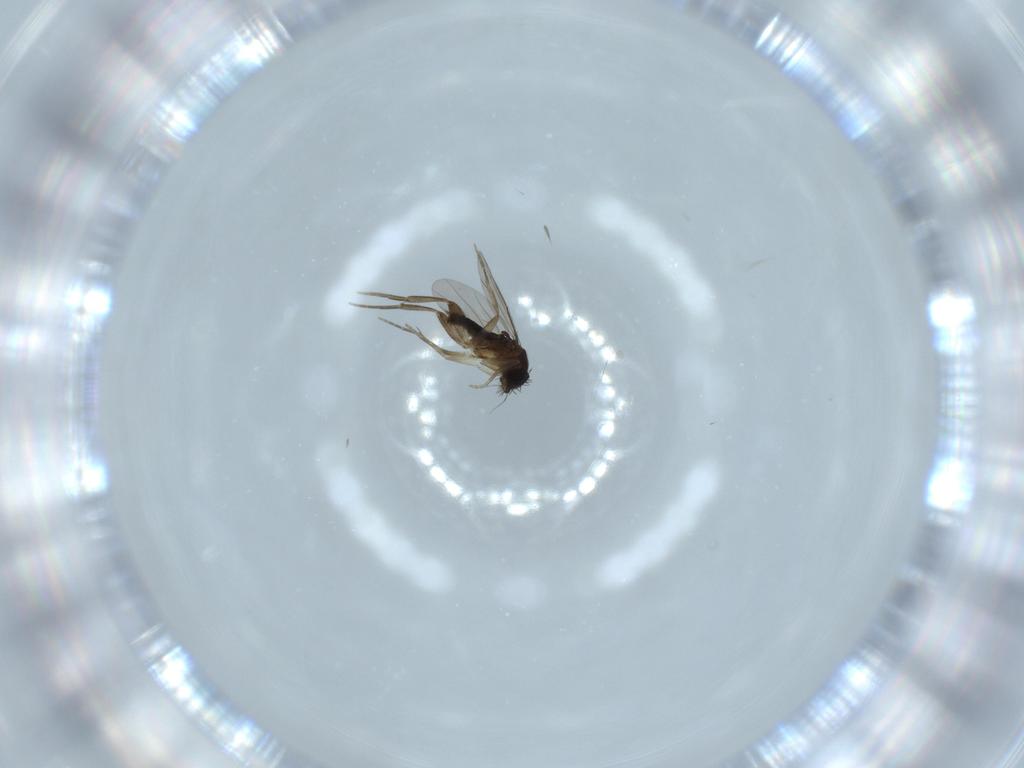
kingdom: Animalia
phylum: Arthropoda
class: Insecta
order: Diptera
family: Phoridae
